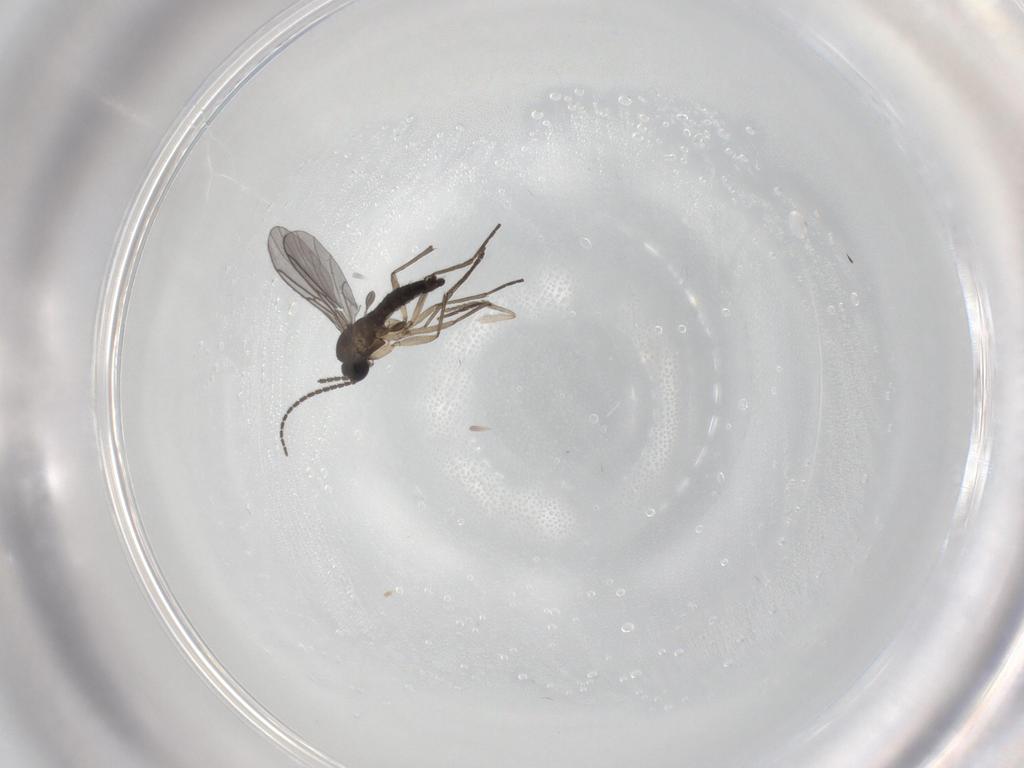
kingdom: Animalia
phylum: Arthropoda
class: Insecta
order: Diptera
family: Sciaridae
